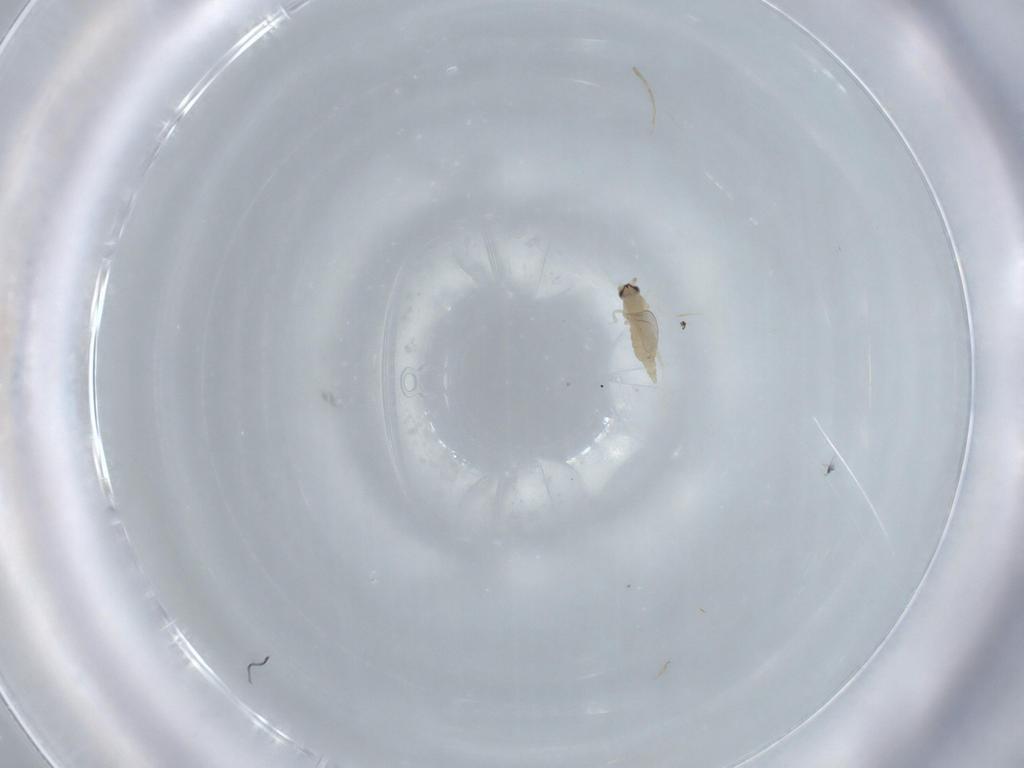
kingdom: Animalia
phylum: Arthropoda
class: Insecta
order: Diptera
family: Cecidomyiidae
